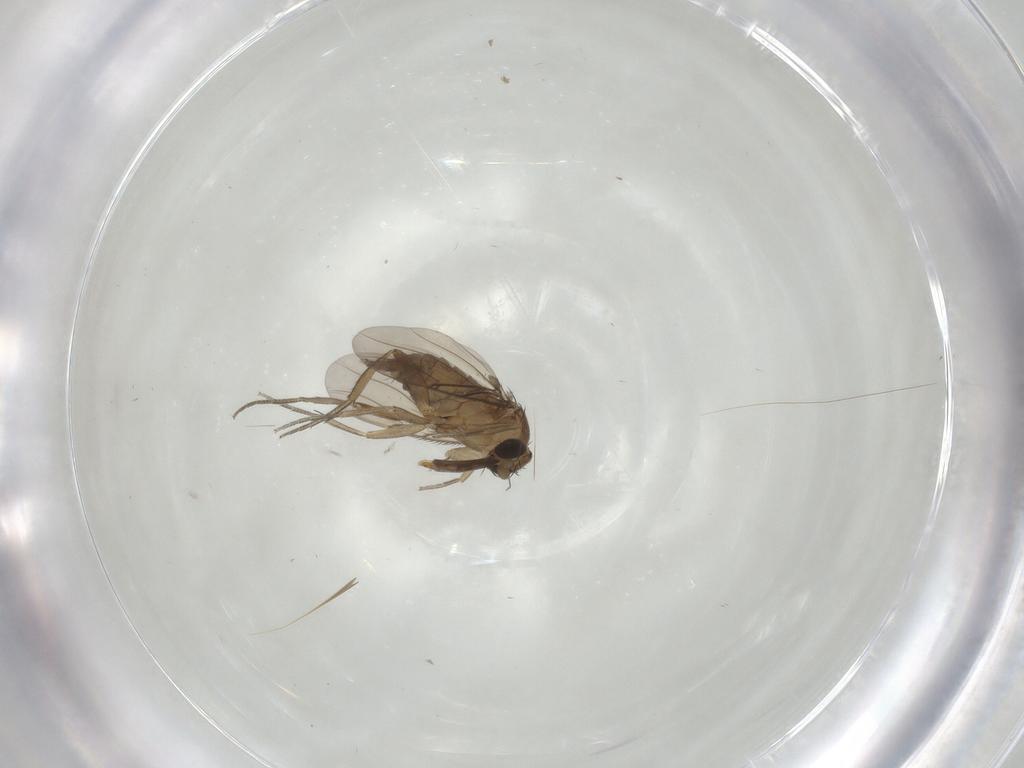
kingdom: Animalia
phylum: Arthropoda
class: Insecta
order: Diptera
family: Phoridae
